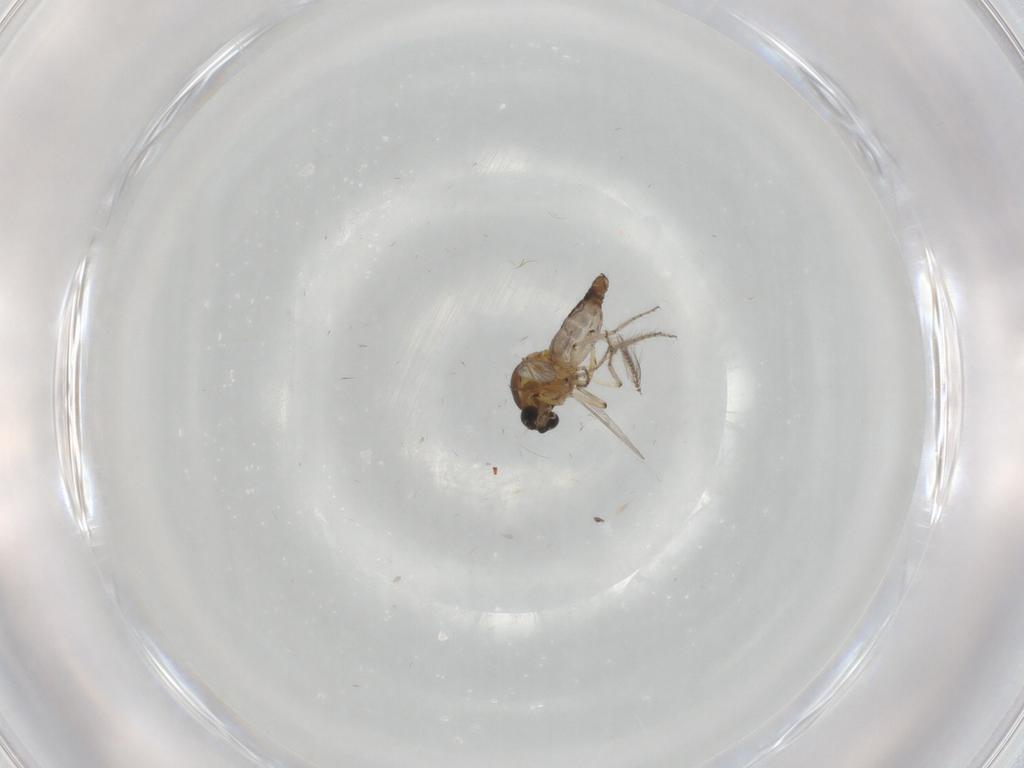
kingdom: Animalia
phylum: Arthropoda
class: Insecta
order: Diptera
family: Ceratopogonidae
